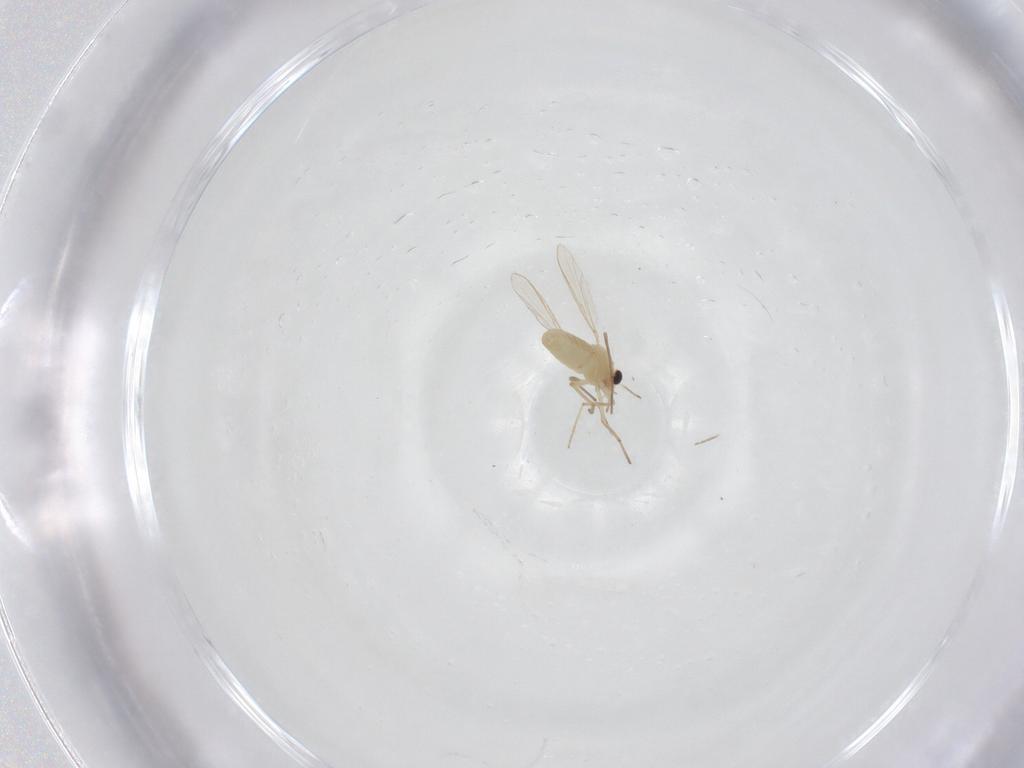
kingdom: Animalia
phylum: Arthropoda
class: Insecta
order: Diptera
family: Chironomidae
